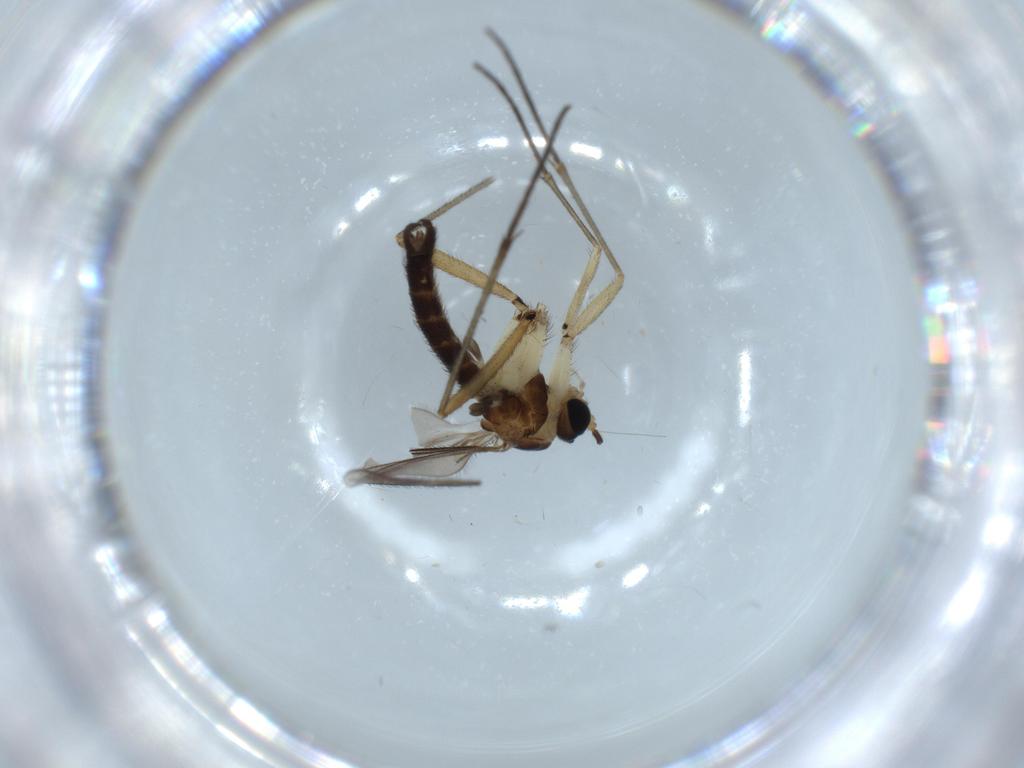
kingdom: Animalia
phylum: Arthropoda
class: Insecta
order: Diptera
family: Sciaridae
